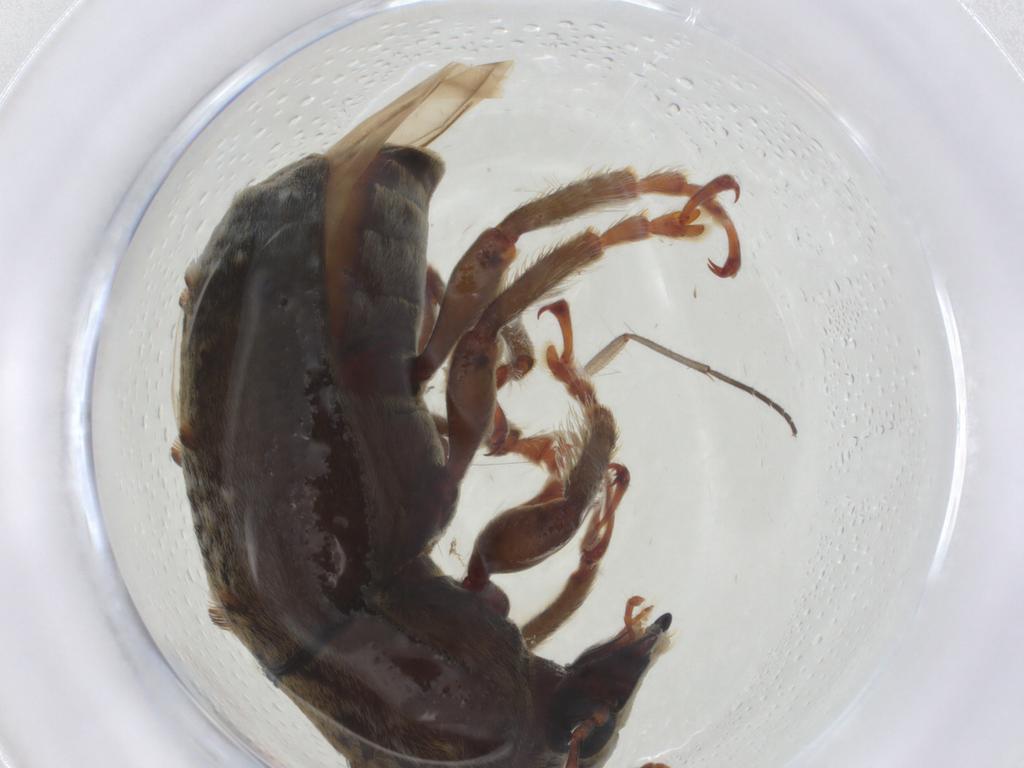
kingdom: Animalia
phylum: Arthropoda
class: Insecta
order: Coleoptera
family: Anthribidae
